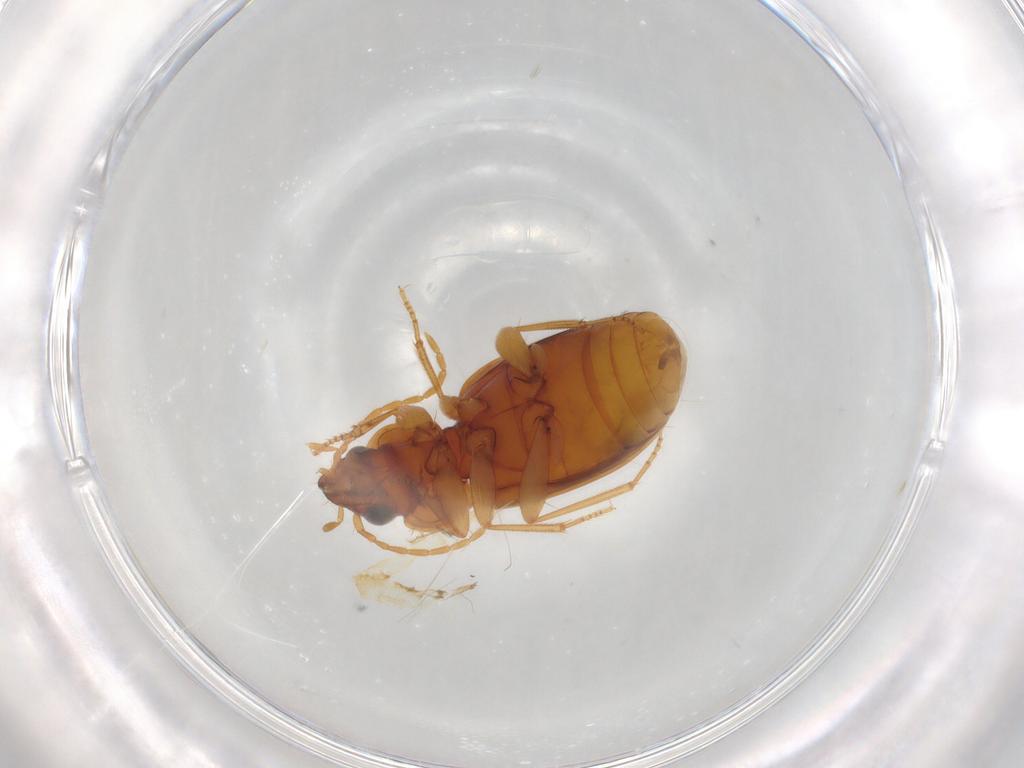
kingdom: Animalia
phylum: Arthropoda
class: Insecta
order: Coleoptera
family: Carabidae
